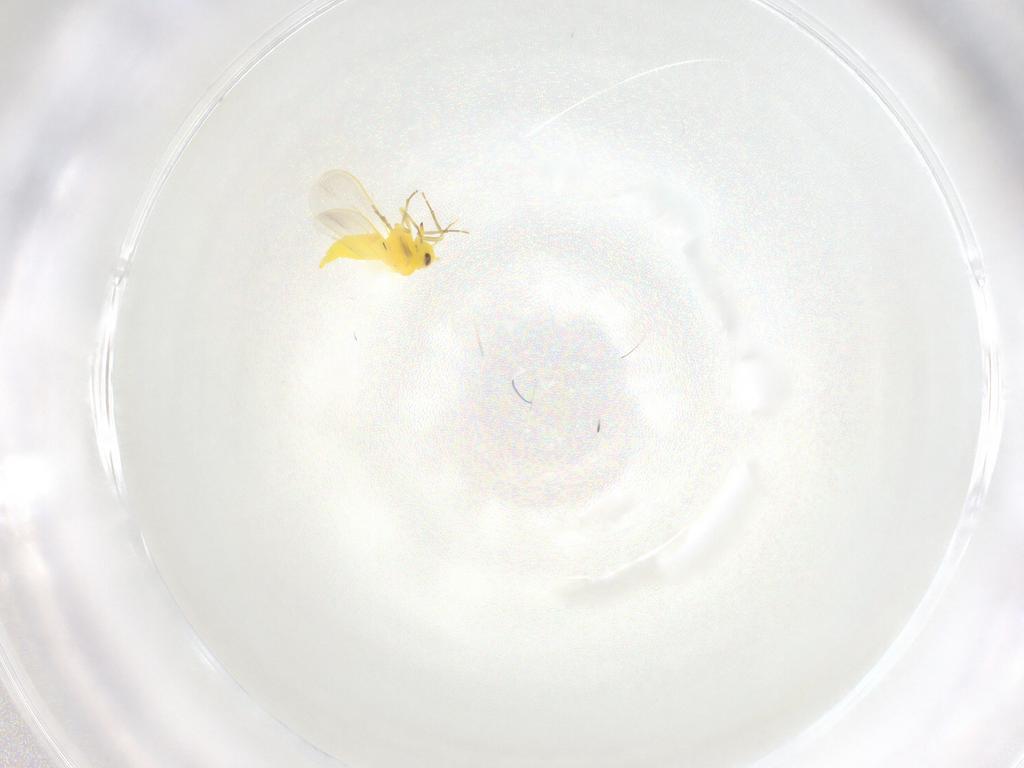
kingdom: Animalia
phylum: Arthropoda
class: Insecta
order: Hemiptera
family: Aleyrodidae
